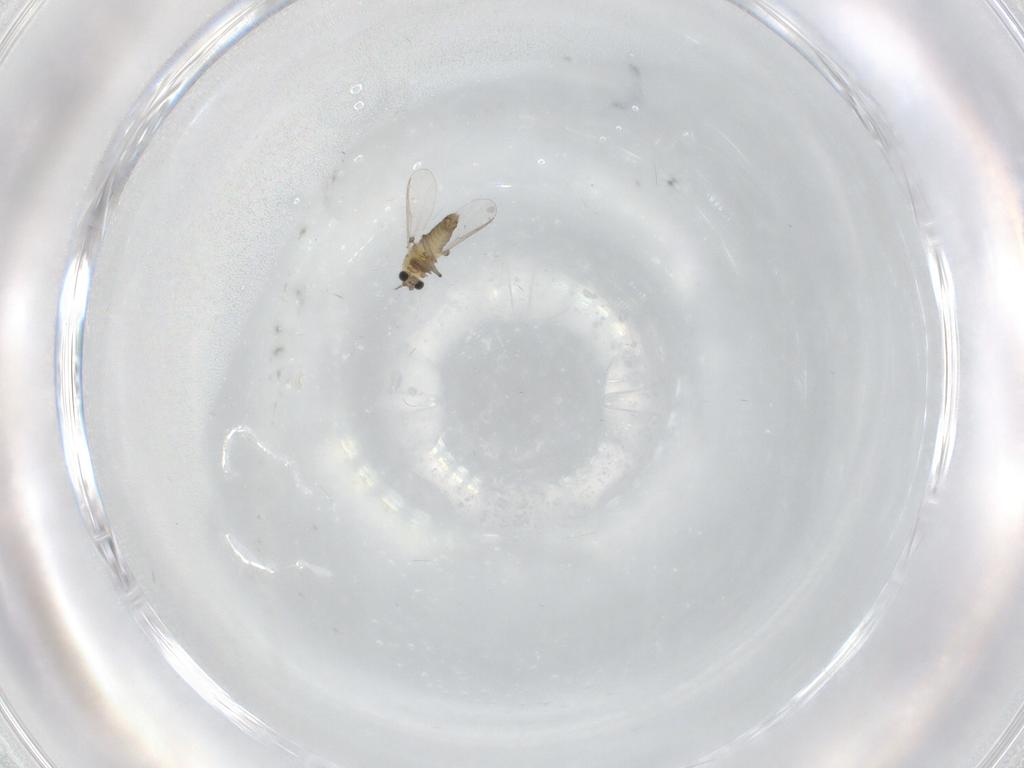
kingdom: Animalia
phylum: Arthropoda
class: Insecta
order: Diptera
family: Chironomidae
